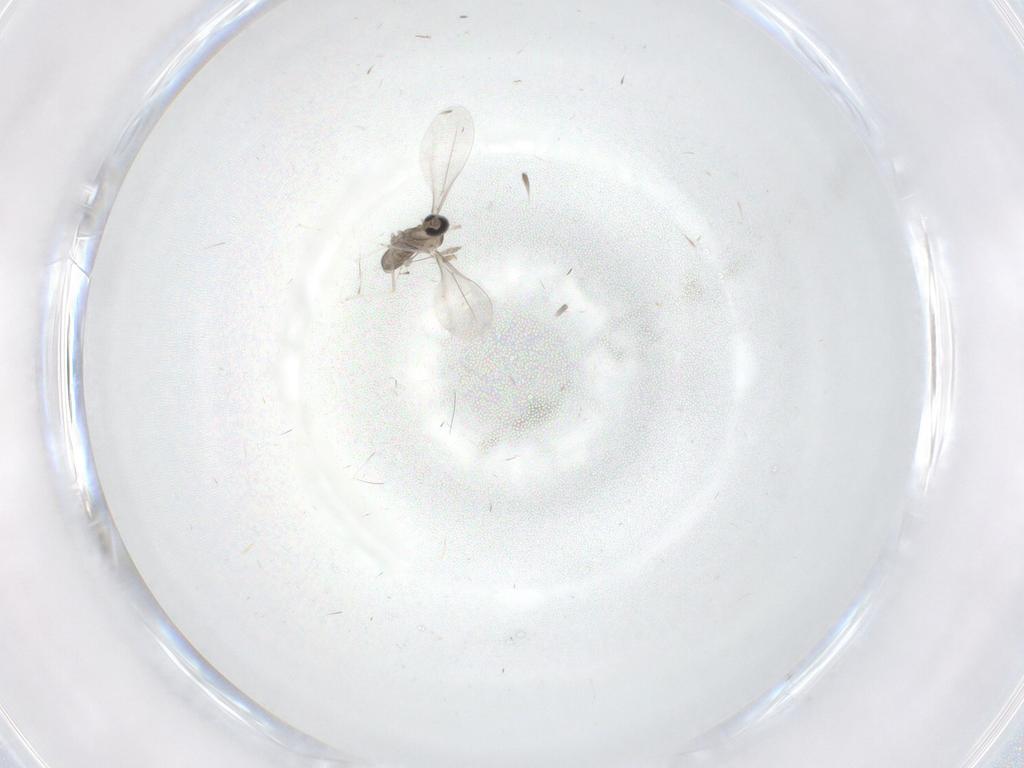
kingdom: Animalia
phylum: Arthropoda
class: Insecta
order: Diptera
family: Cecidomyiidae
